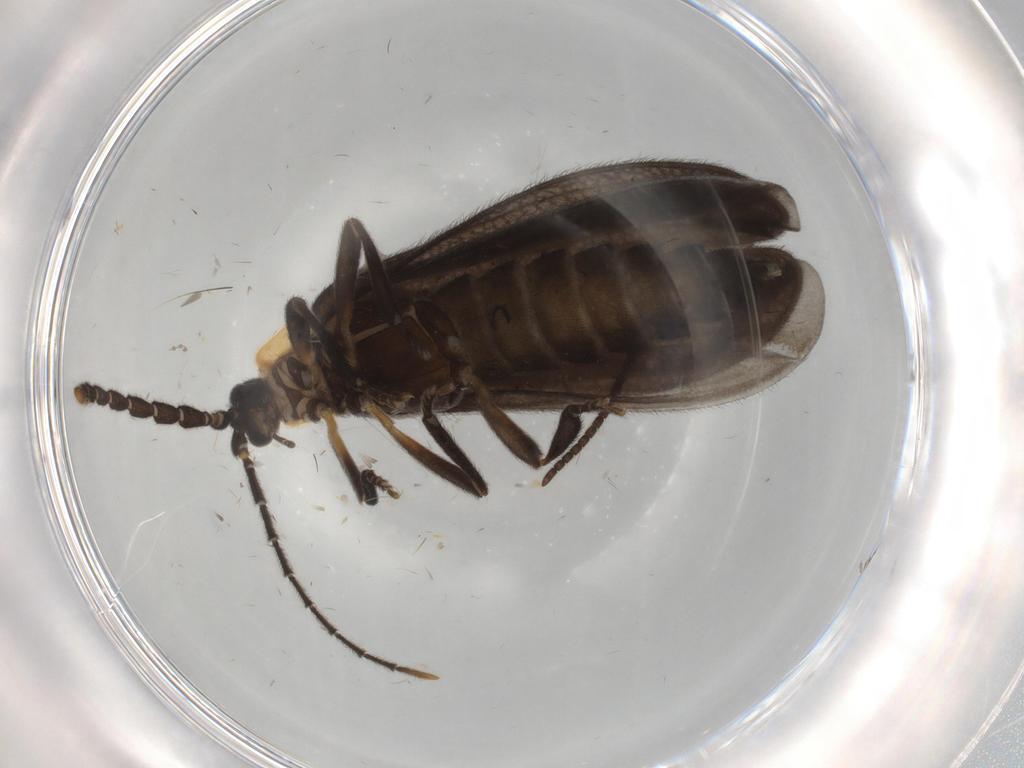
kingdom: Animalia
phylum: Arthropoda
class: Insecta
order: Coleoptera
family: Lycidae
